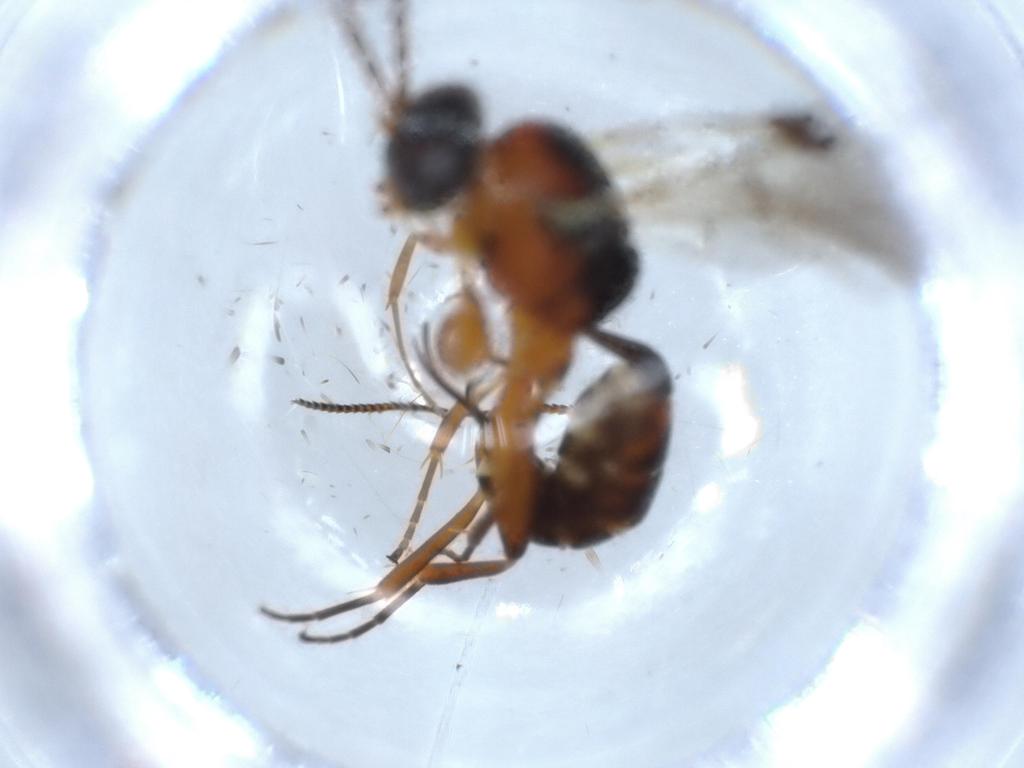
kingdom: Animalia
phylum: Arthropoda
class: Insecta
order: Hymenoptera
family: Ichneumonidae
